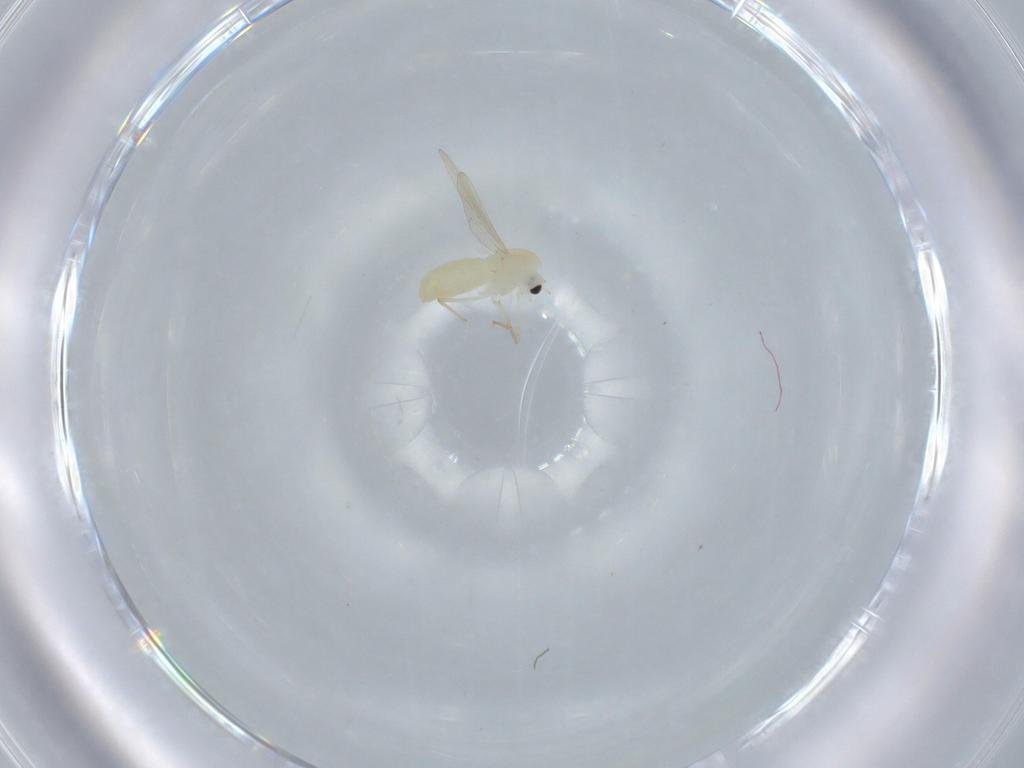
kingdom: Animalia
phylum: Arthropoda
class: Insecta
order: Diptera
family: Chironomidae
